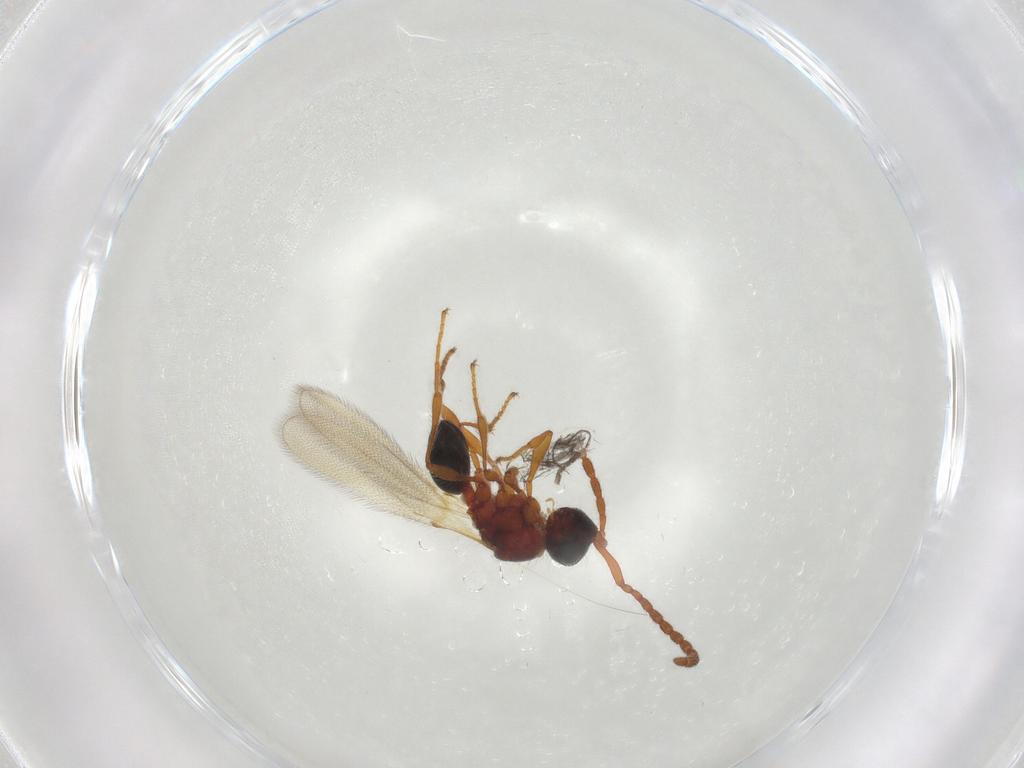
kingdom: Animalia
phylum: Arthropoda
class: Insecta
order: Hymenoptera
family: Diapriidae
